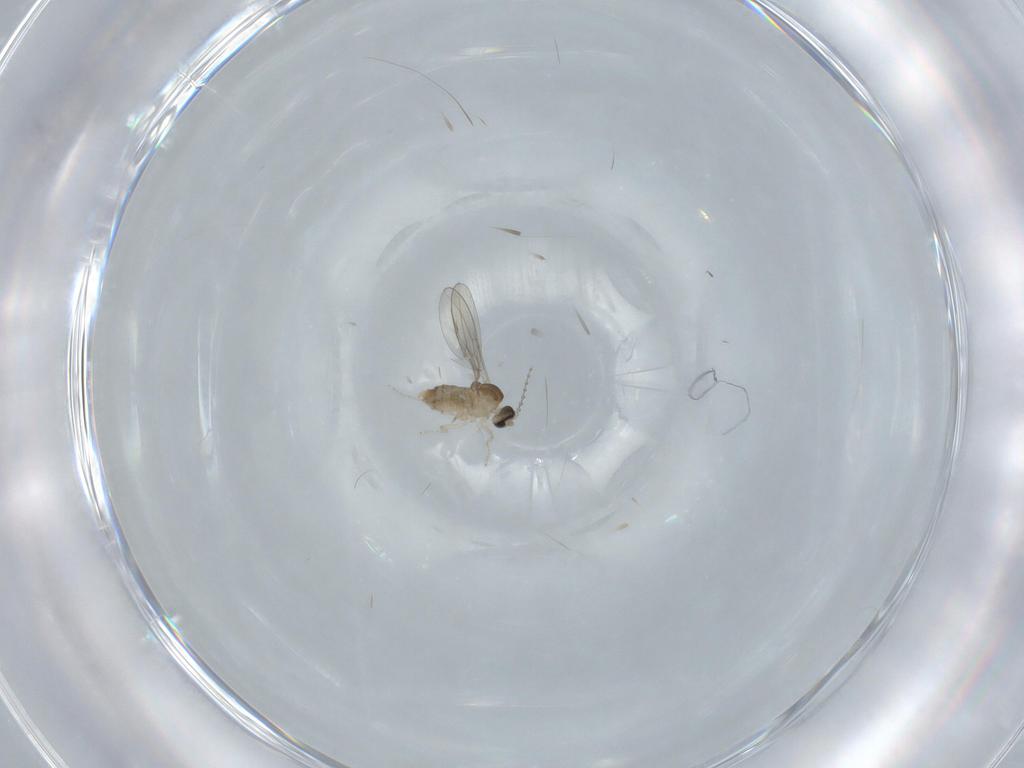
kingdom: Animalia
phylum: Arthropoda
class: Insecta
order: Diptera
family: Cecidomyiidae
